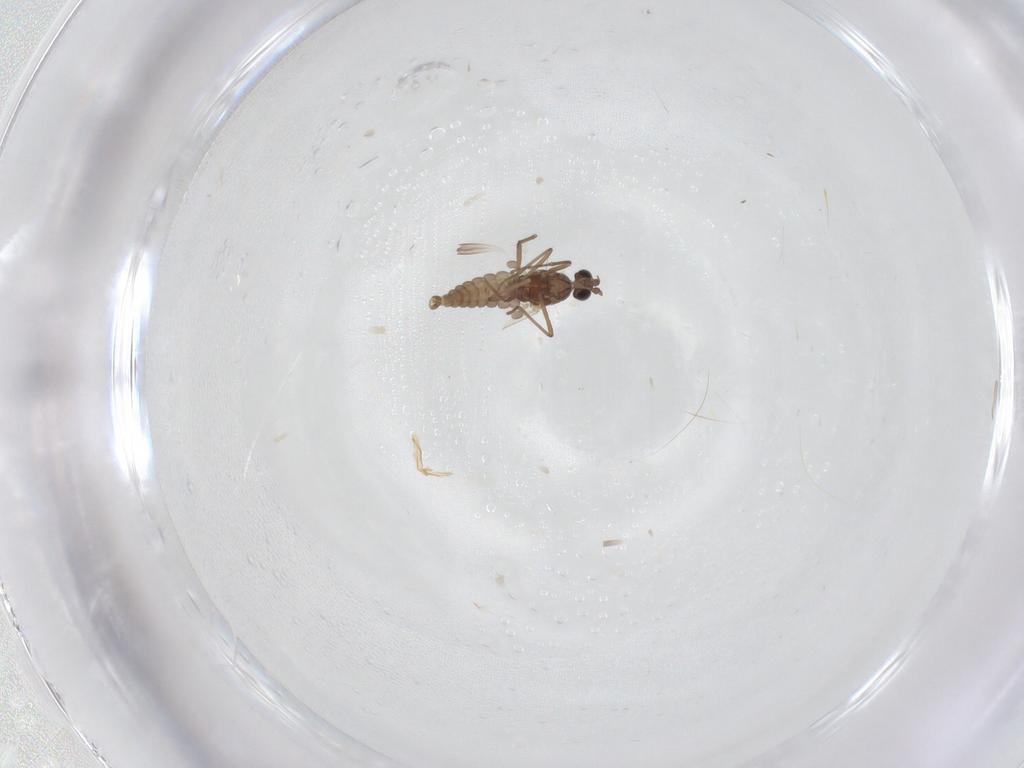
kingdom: Animalia
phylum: Arthropoda
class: Insecta
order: Diptera
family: Cecidomyiidae
